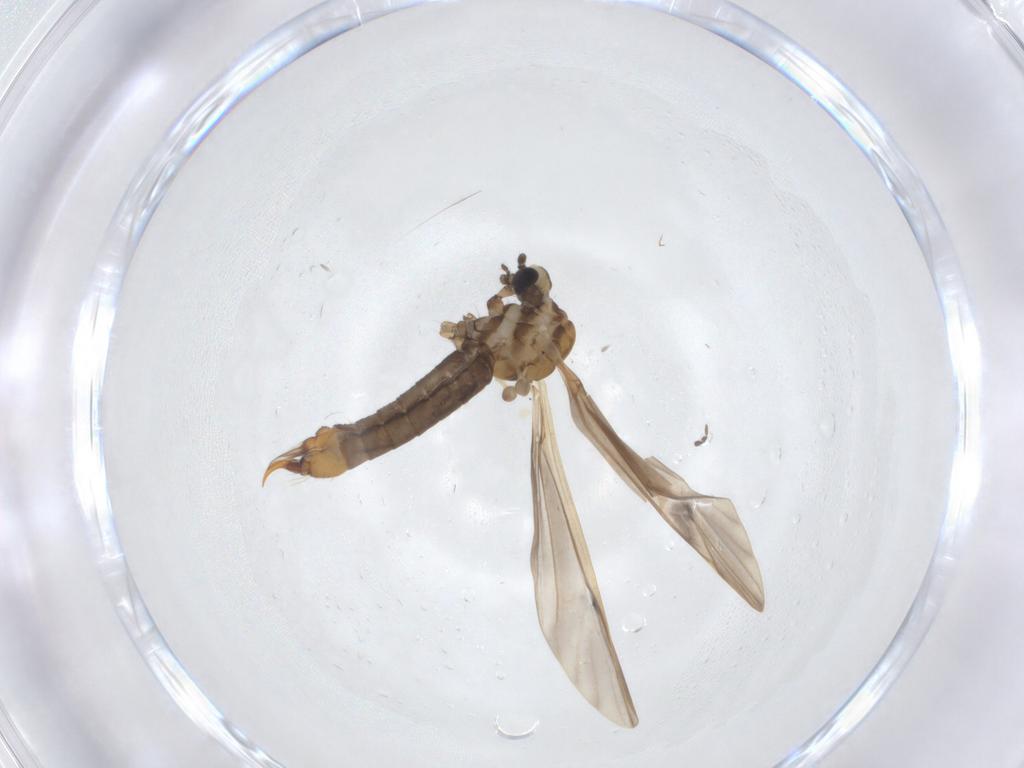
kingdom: Animalia
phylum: Arthropoda
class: Insecta
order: Diptera
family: Limoniidae
